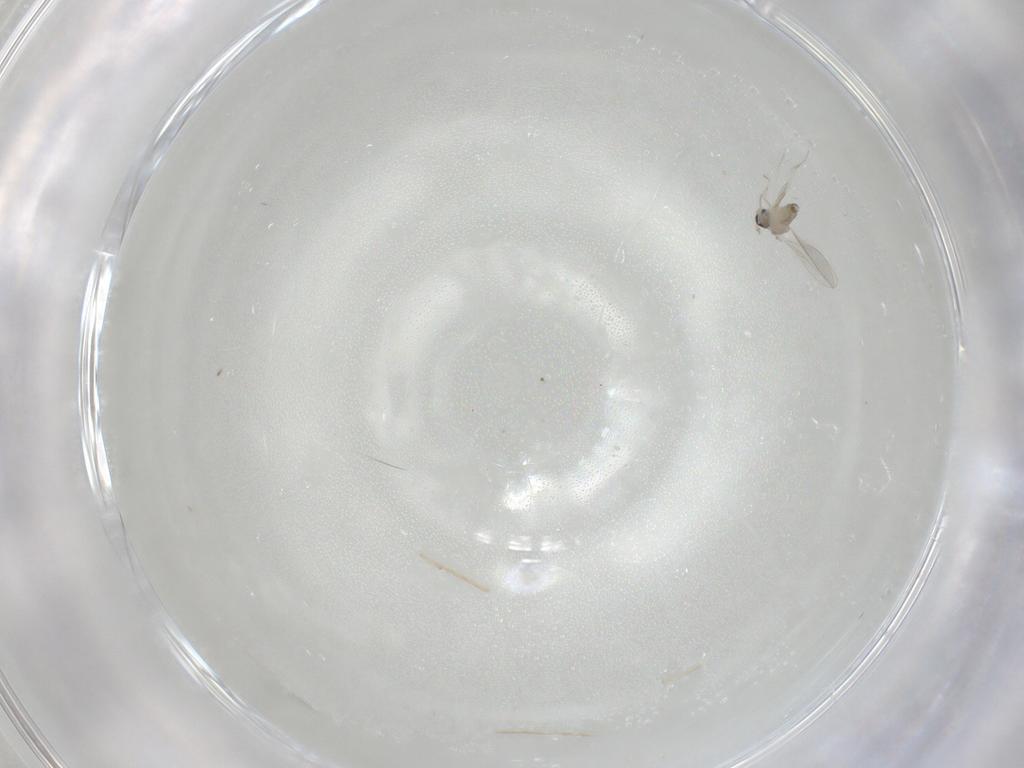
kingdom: Animalia
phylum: Arthropoda
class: Insecta
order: Diptera
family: Cecidomyiidae
